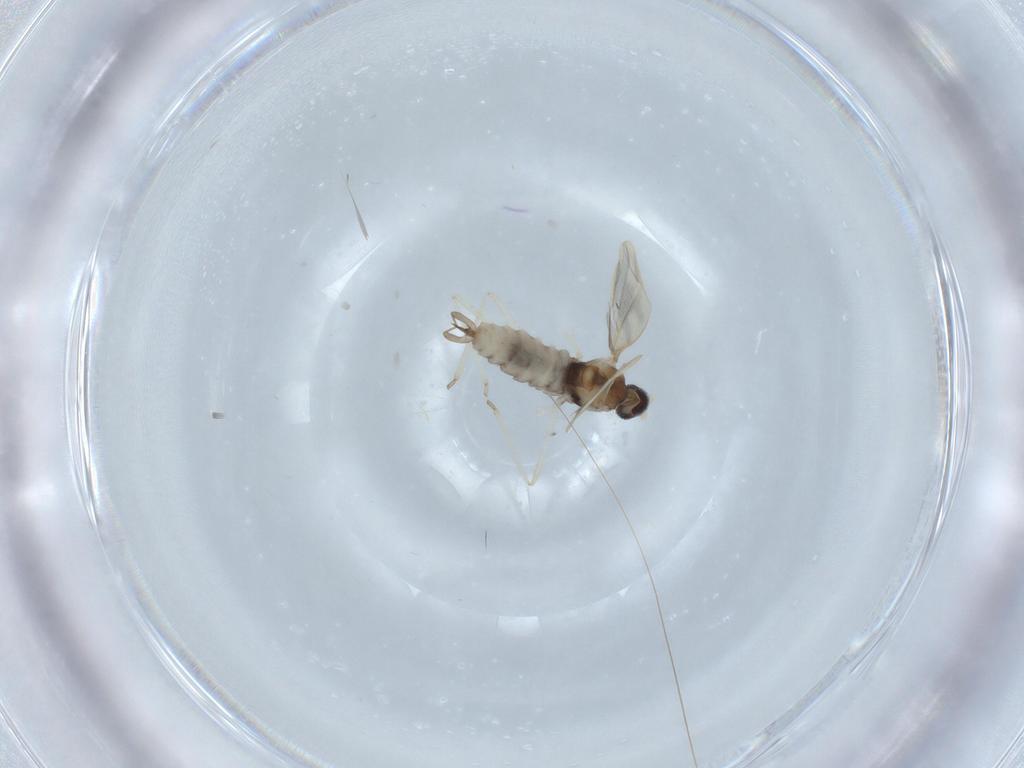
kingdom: Animalia
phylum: Arthropoda
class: Insecta
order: Diptera
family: Cecidomyiidae
